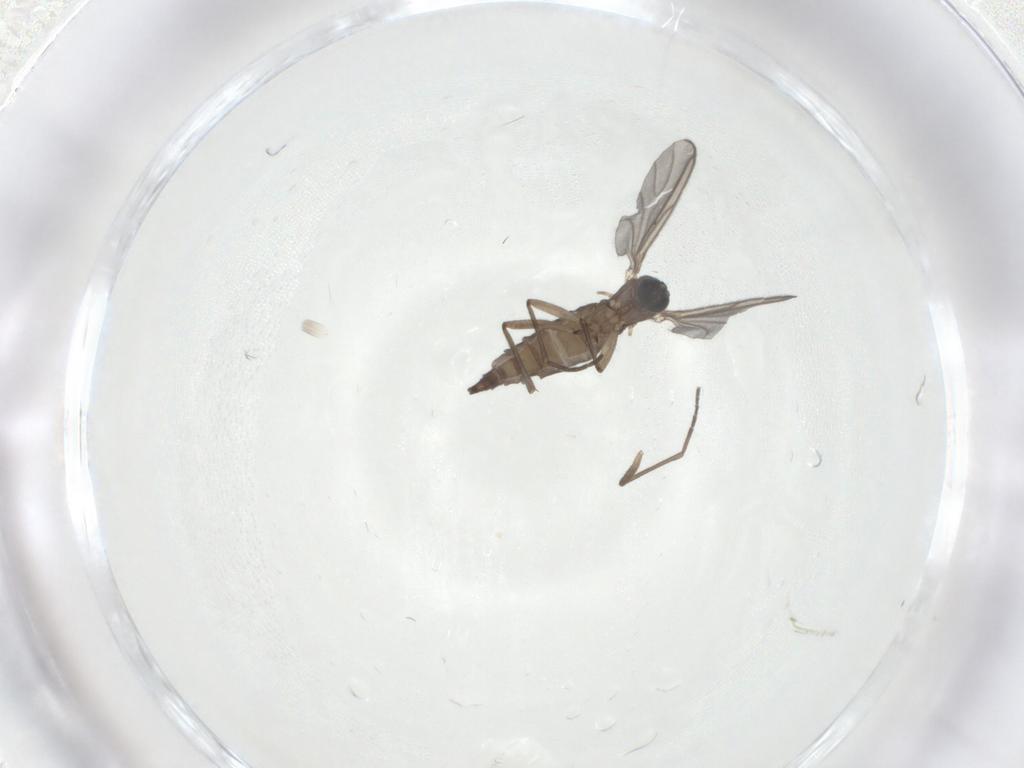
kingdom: Animalia
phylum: Arthropoda
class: Insecta
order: Diptera
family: Sciaridae
